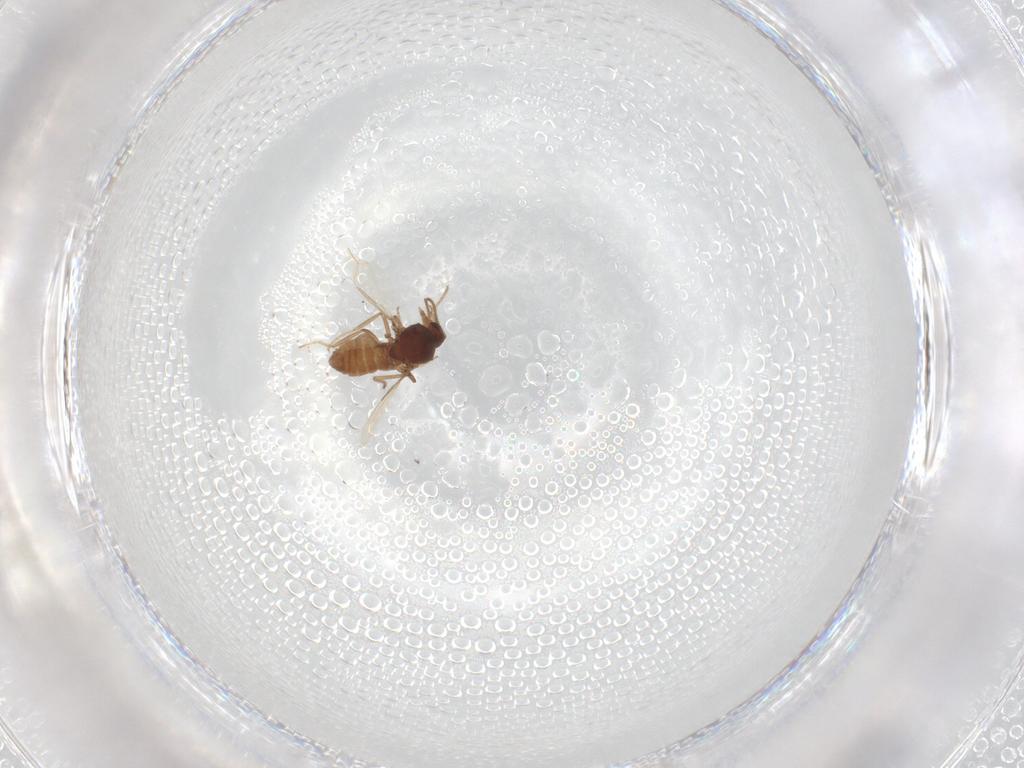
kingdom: Animalia
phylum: Arthropoda
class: Insecta
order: Diptera
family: Ceratopogonidae
